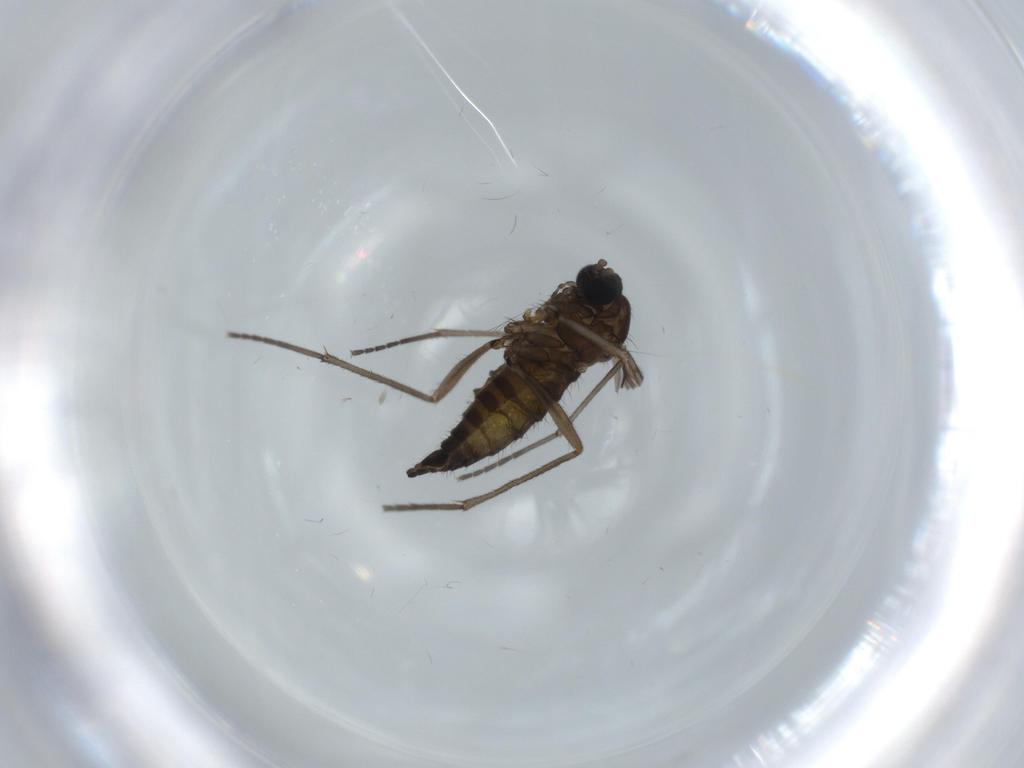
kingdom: Animalia
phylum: Arthropoda
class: Insecta
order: Diptera
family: Sciaridae
